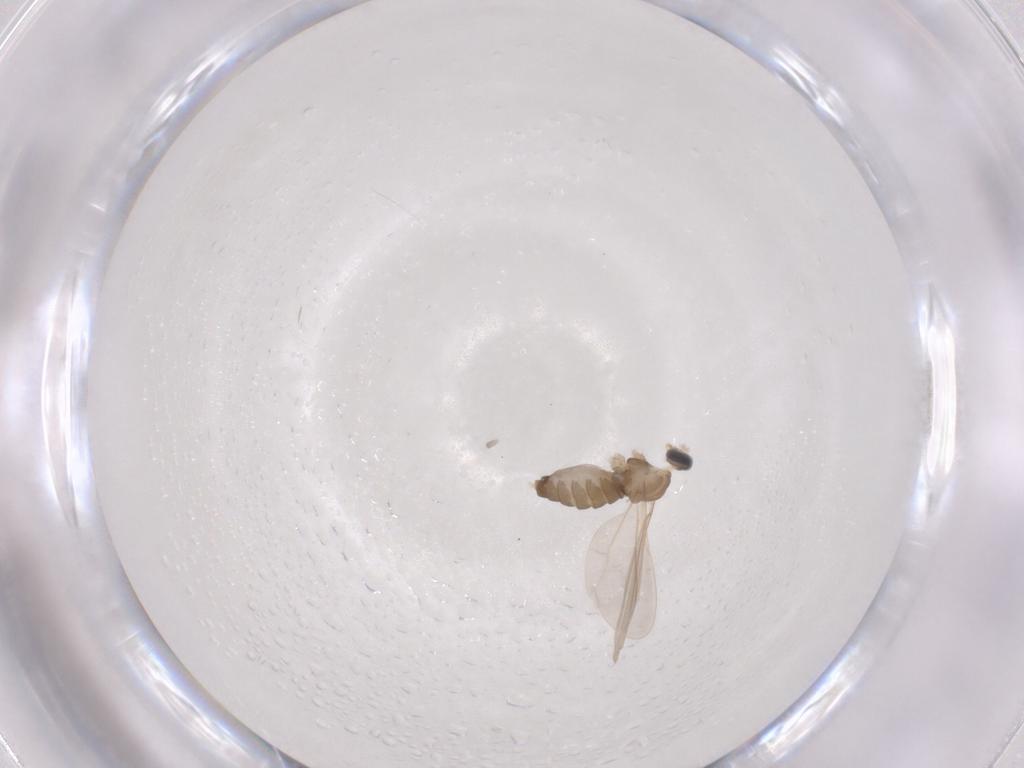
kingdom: Animalia
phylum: Arthropoda
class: Insecta
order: Diptera
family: Cecidomyiidae
